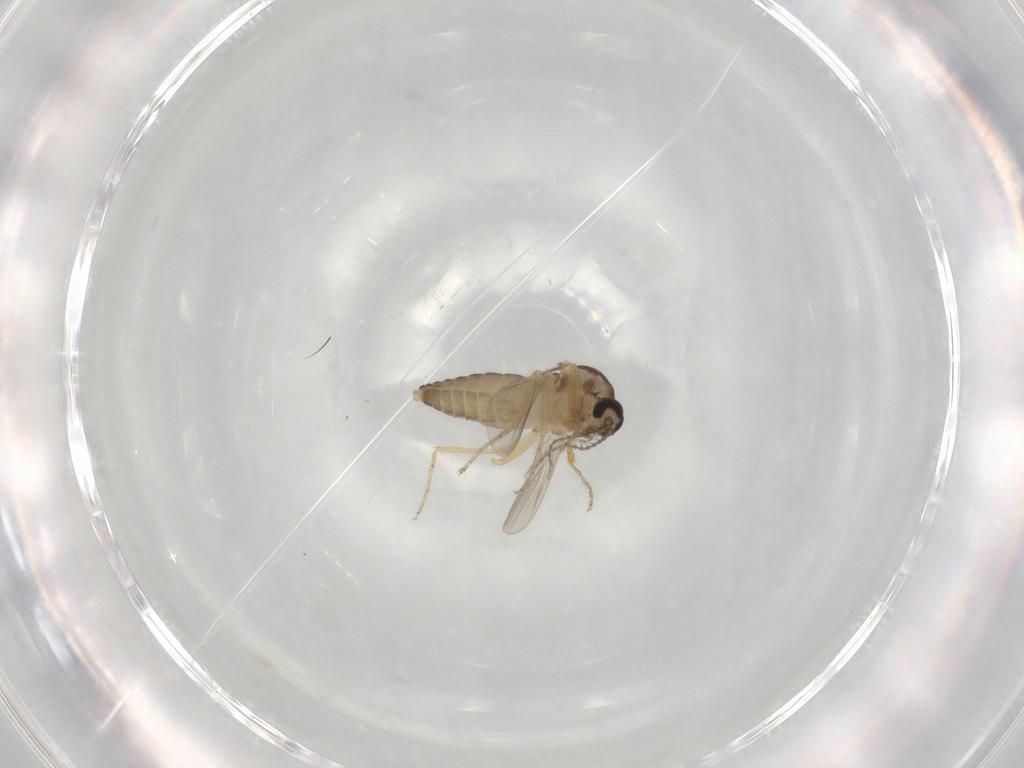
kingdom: Animalia
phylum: Arthropoda
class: Insecta
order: Diptera
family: Ceratopogonidae
